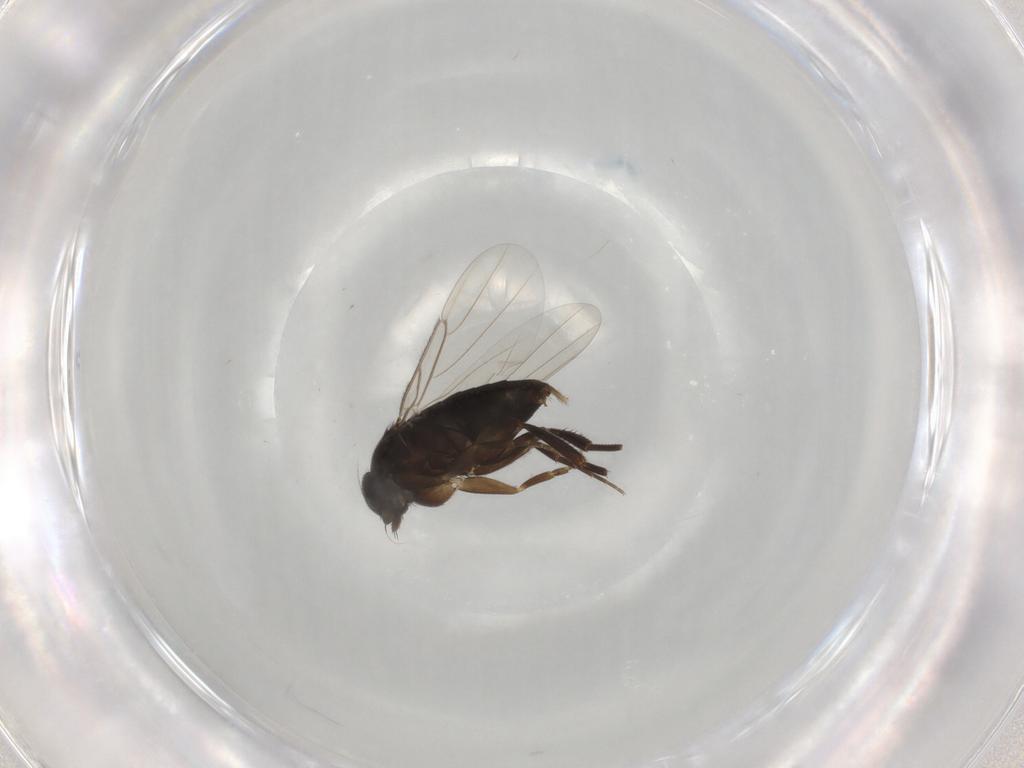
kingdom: Animalia
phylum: Arthropoda
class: Insecta
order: Diptera
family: Phoridae
